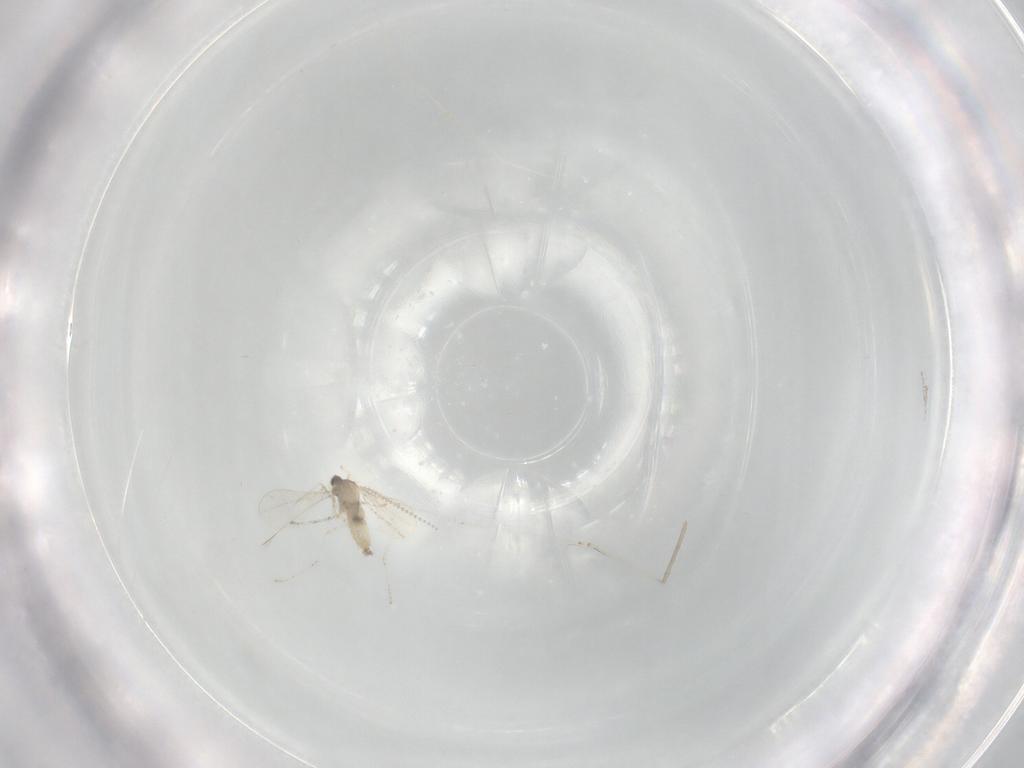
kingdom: Animalia
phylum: Arthropoda
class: Insecta
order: Diptera
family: Cecidomyiidae
